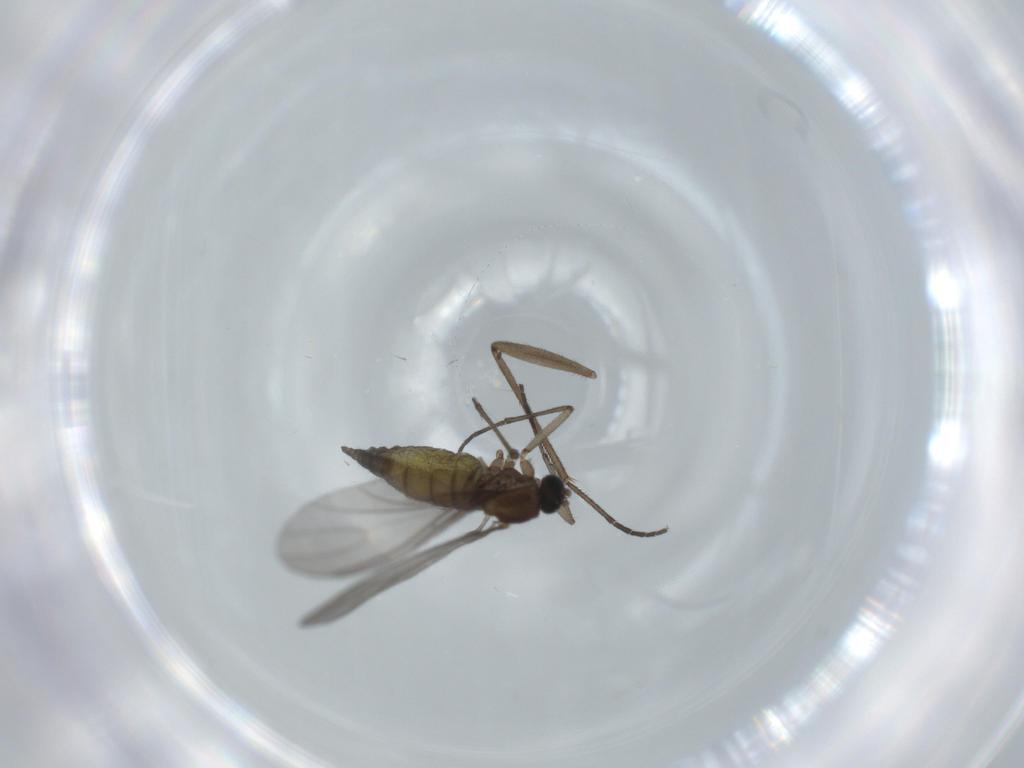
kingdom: Animalia
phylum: Arthropoda
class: Insecta
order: Diptera
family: Sciaridae
